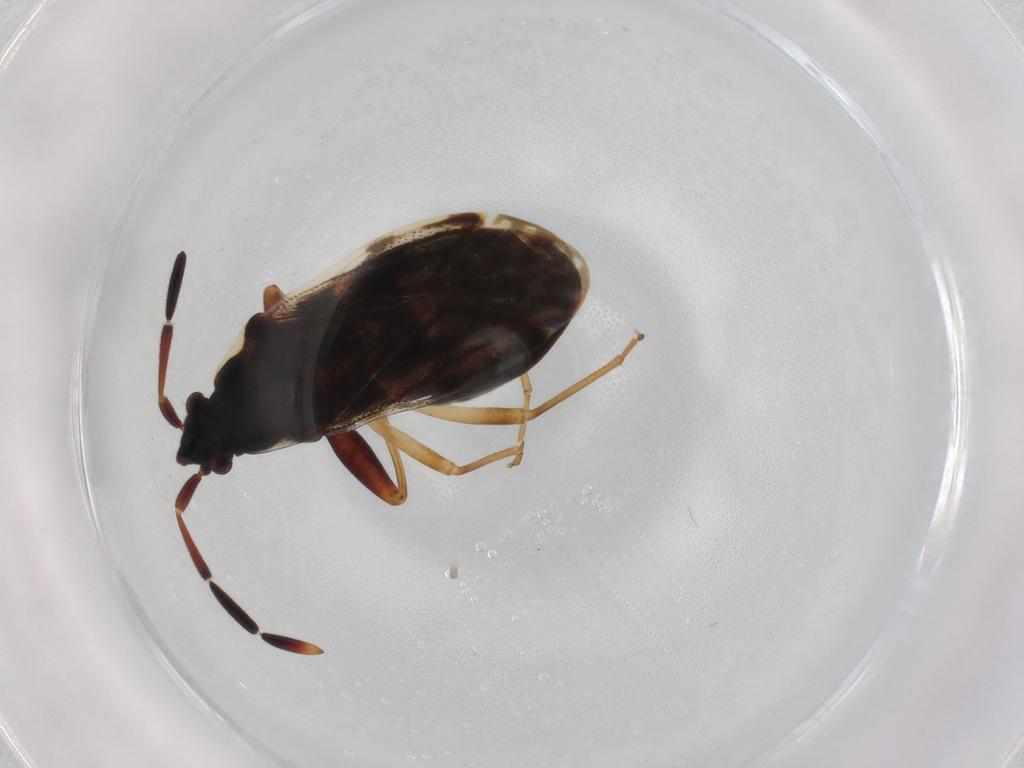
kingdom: Animalia
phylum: Arthropoda
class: Insecta
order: Hemiptera
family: Rhyparochromidae
